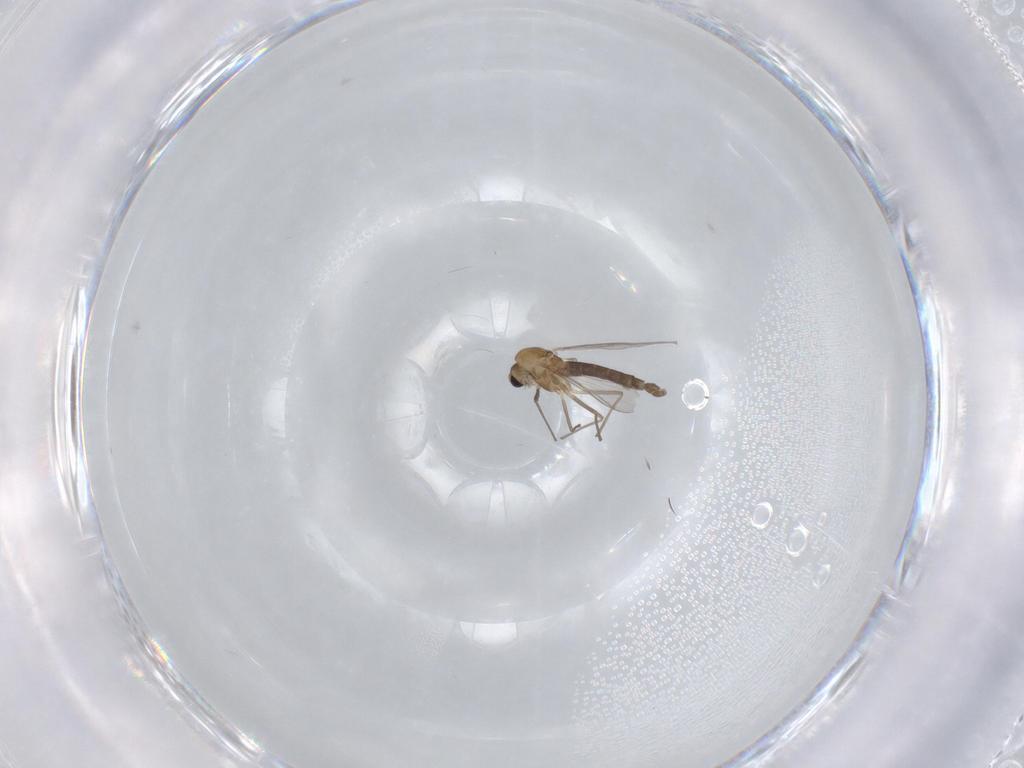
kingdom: Animalia
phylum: Arthropoda
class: Insecta
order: Diptera
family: Chironomidae
